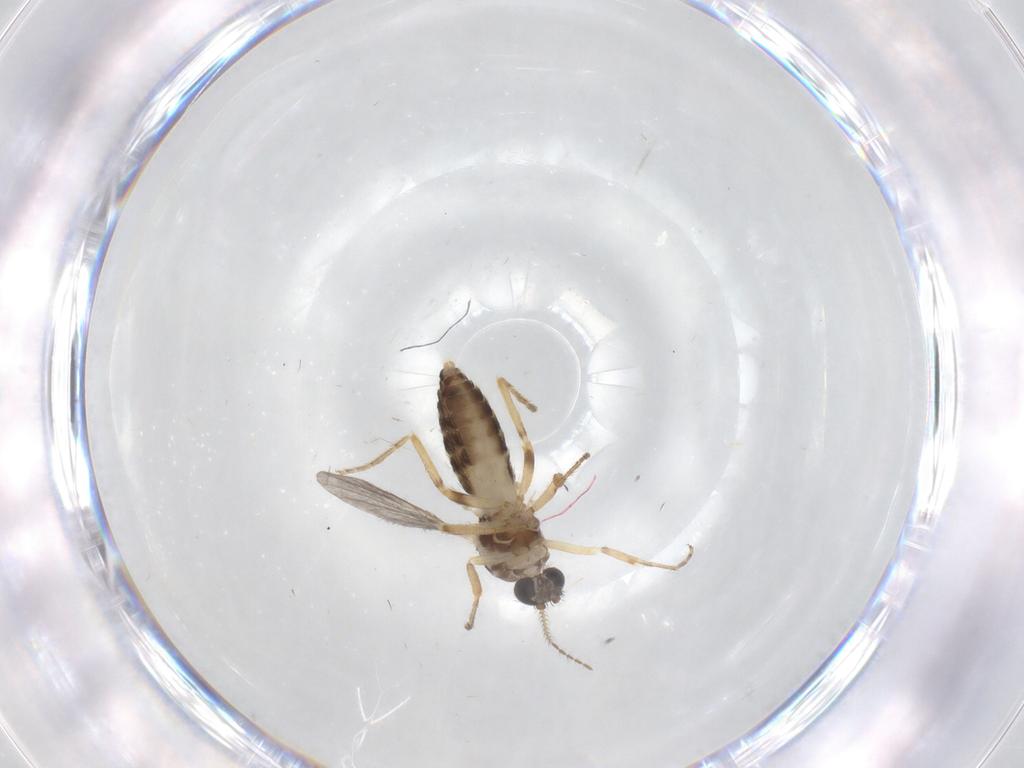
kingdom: Animalia
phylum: Arthropoda
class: Insecta
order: Diptera
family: Ceratopogonidae
